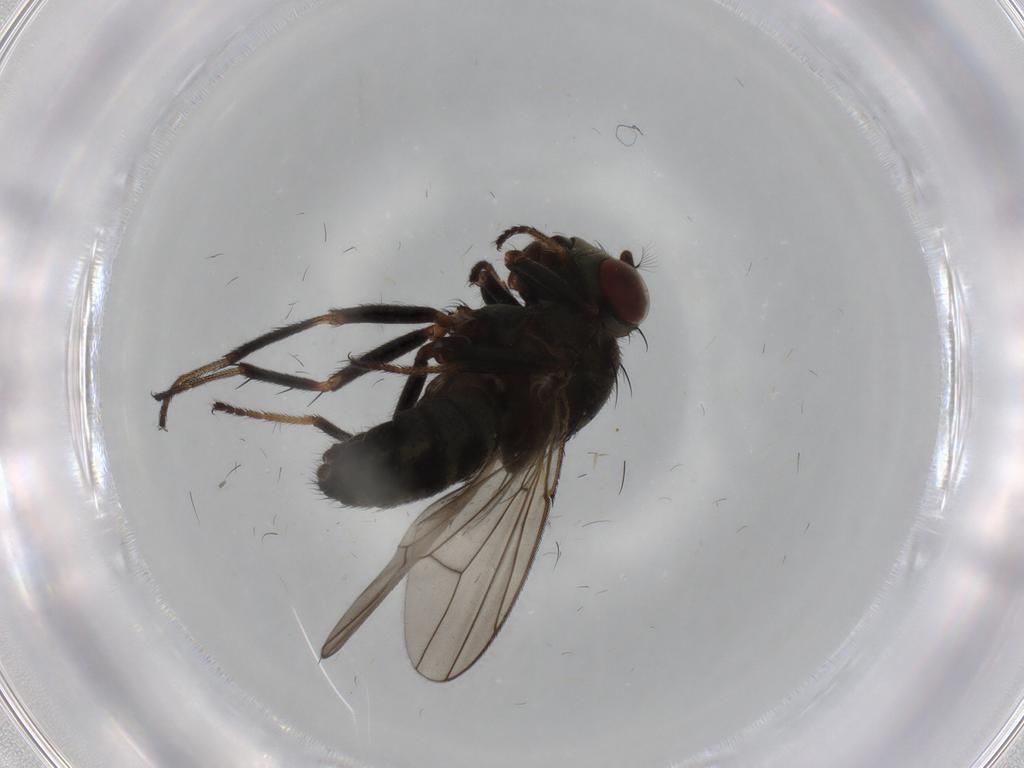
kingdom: Animalia
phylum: Arthropoda
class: Insecta
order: Diptera
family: Ephydridae
